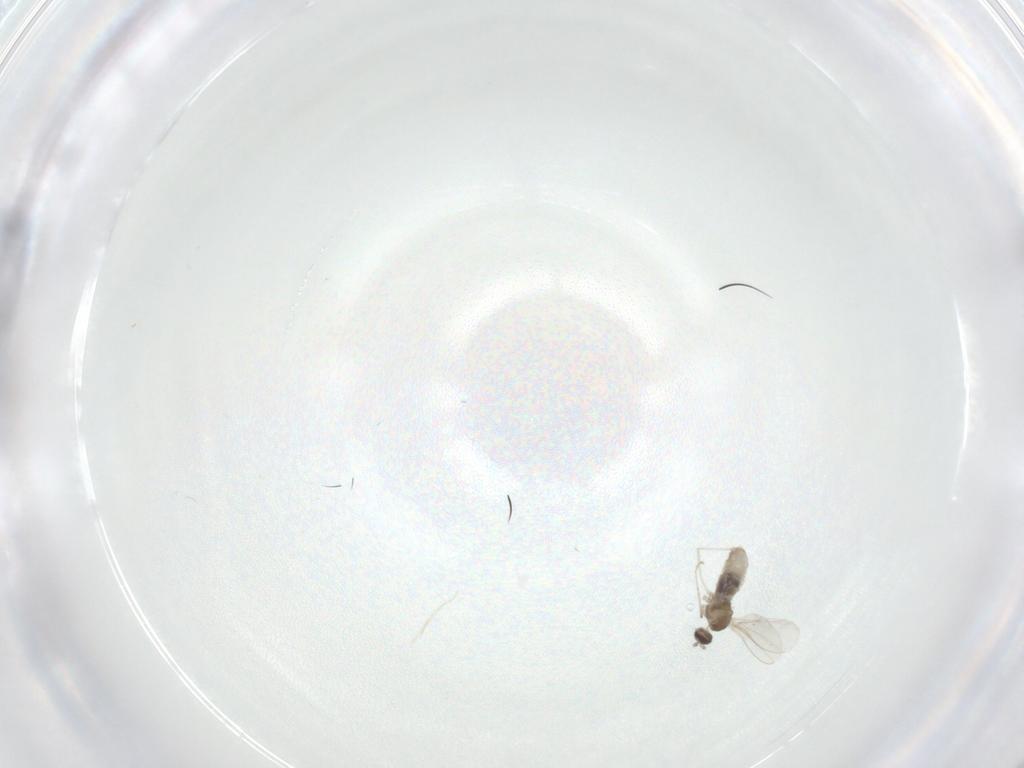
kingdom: Animalia
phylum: Arthropoda
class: Insecta
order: Diptera
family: Cecidomyiidae
